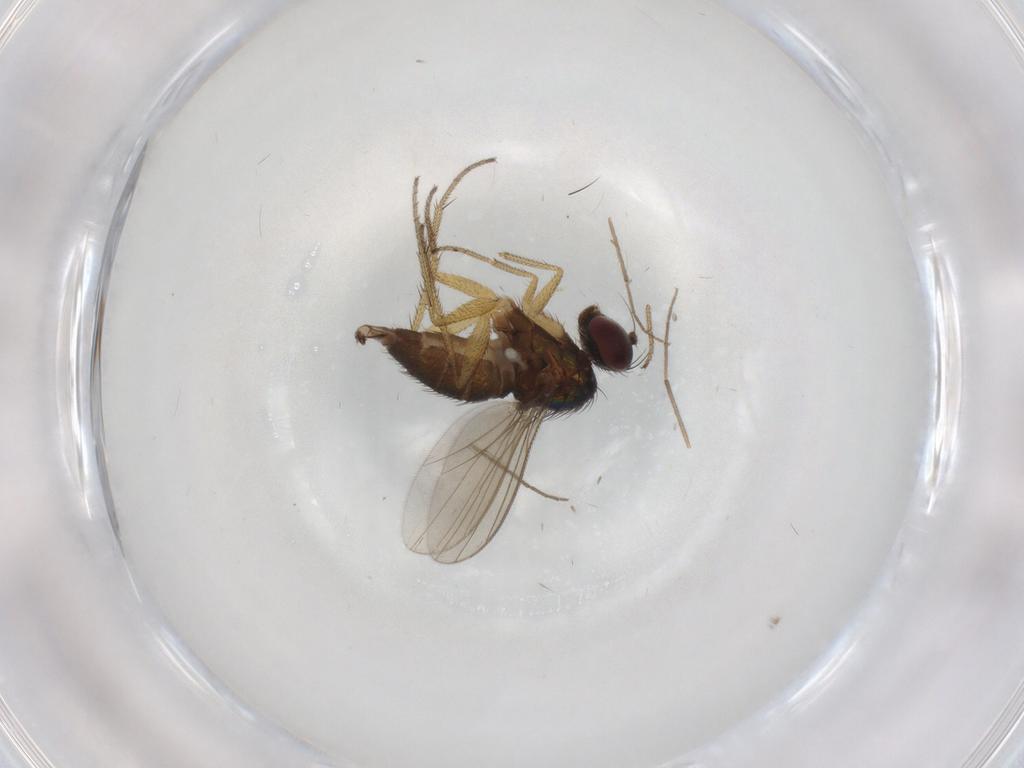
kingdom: Animalia
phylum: Arthropoda
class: Insecta
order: Diptera
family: Dolichopodidae
